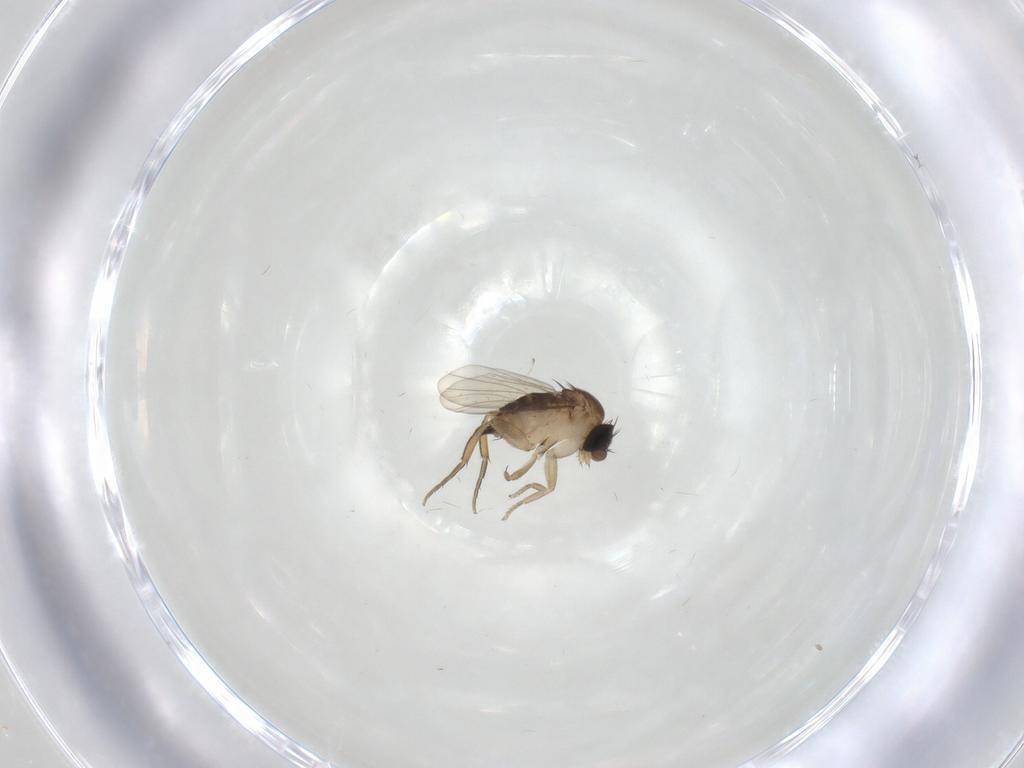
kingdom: Animalia
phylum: Arthropoda
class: Insecta
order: Diptera
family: Phoridae
